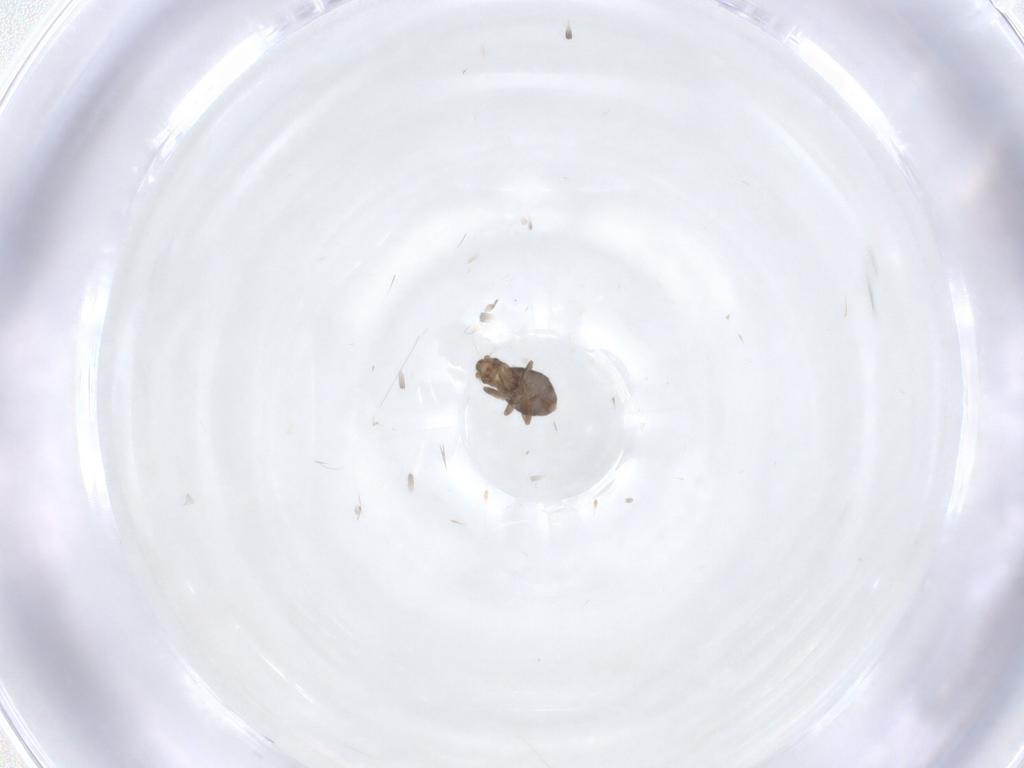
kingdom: Animalia
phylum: Arthropoda
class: Insecta
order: Diptera
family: Phoridae
